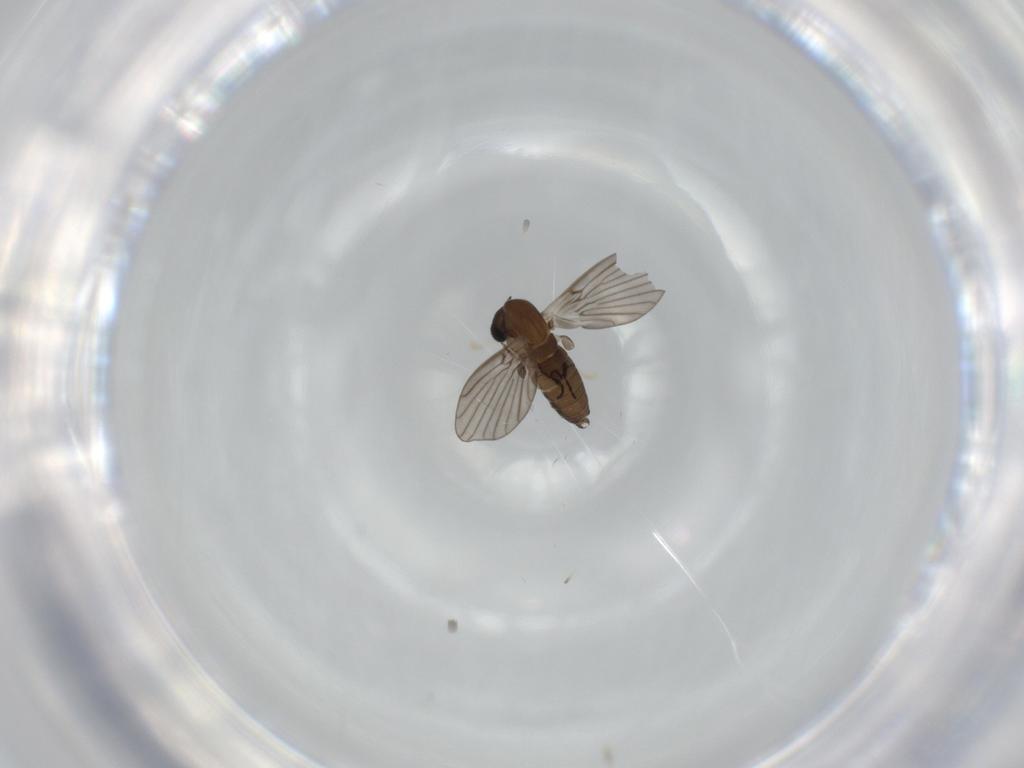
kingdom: Animalia
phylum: Arthropoda
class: Insecta
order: Diptera
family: Psychodidae
